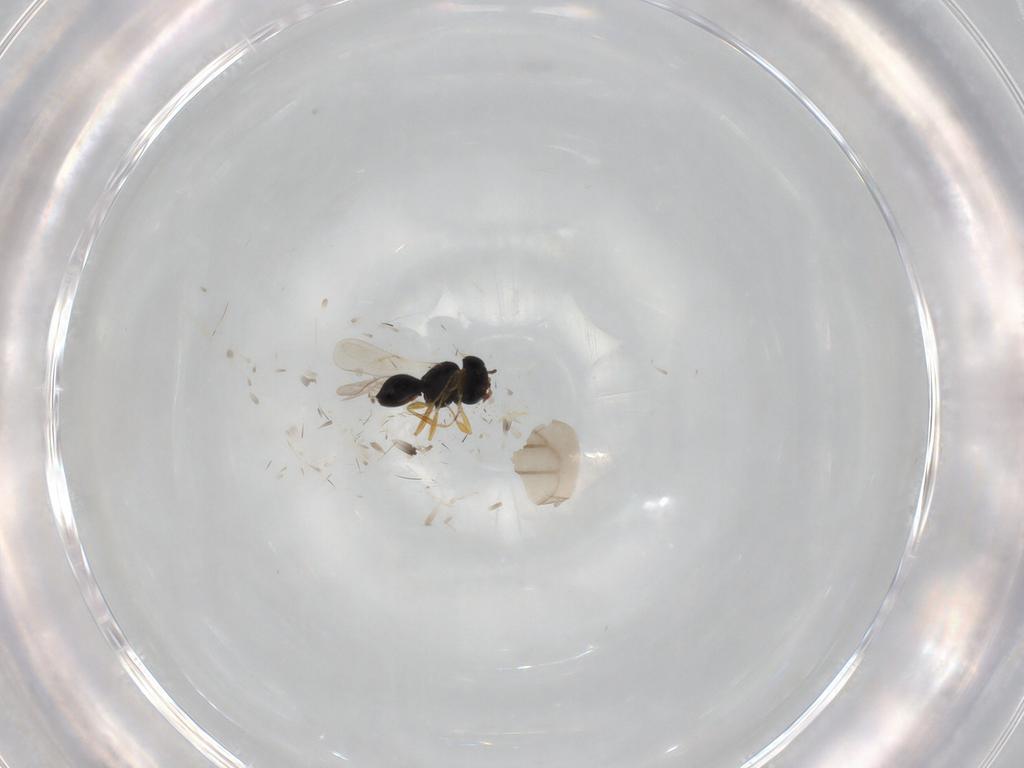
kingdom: Animalia
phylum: Arthropoda
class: Insecta
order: Hymenoptera
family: Scelionidae
